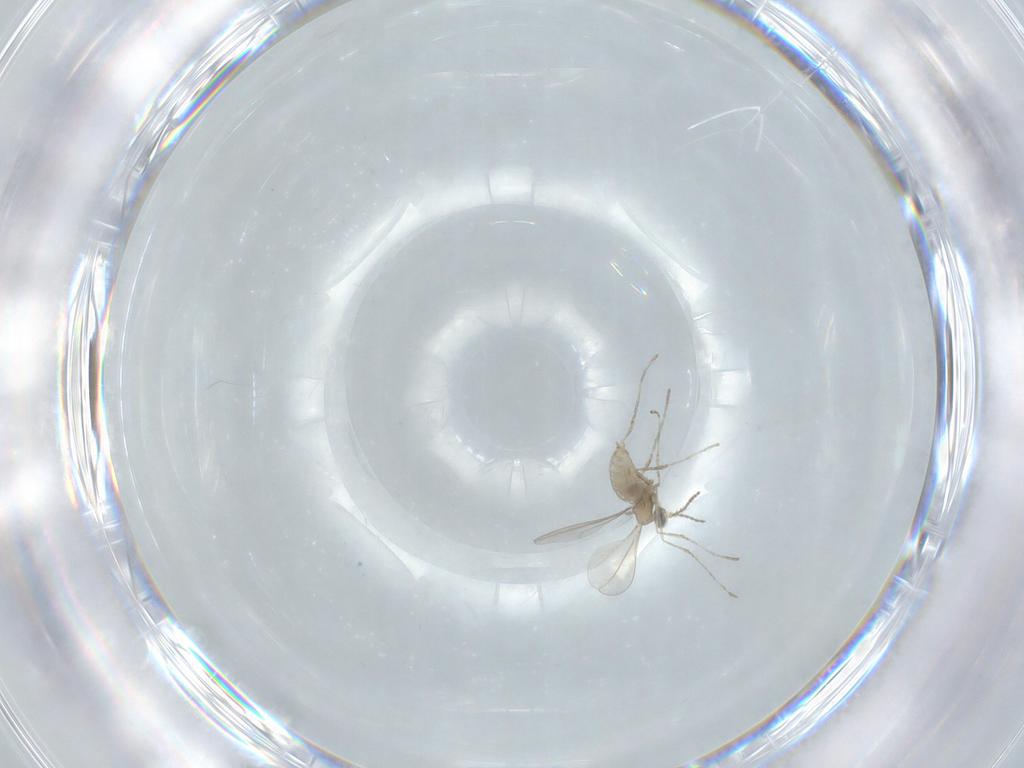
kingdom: Animalia
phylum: Arthropoda
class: Insecta
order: Diptera
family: Cecidomyiidae
